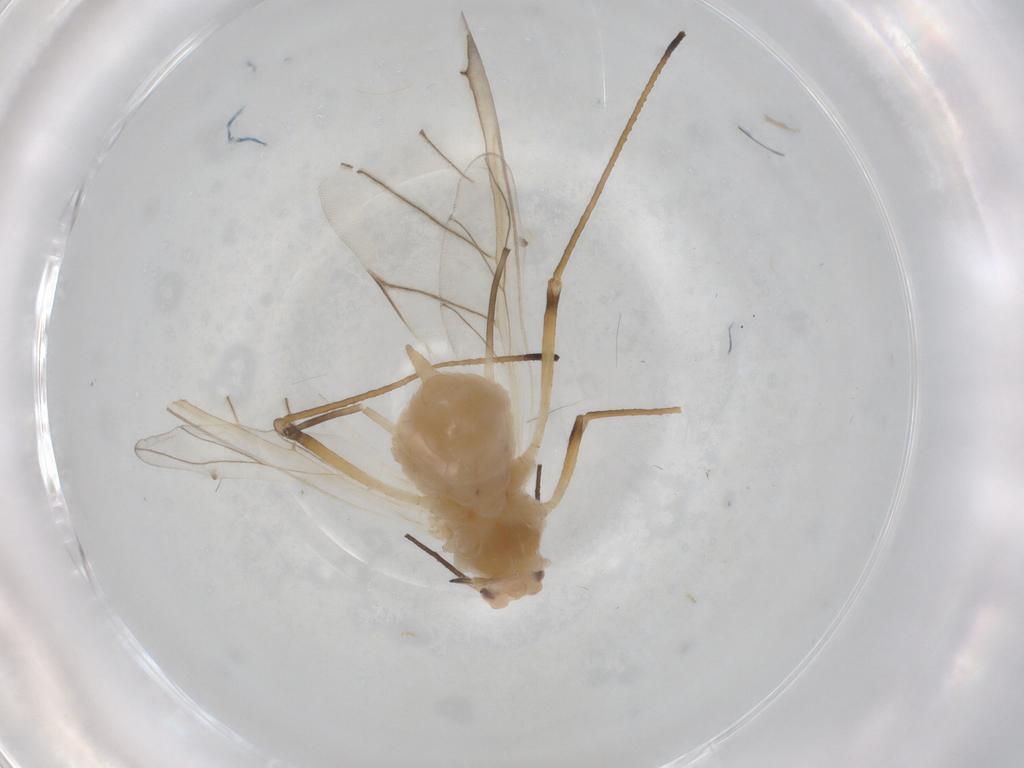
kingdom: Animalia
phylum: Arthropoda
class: Insecta
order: Hemiptera
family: Aphididae
